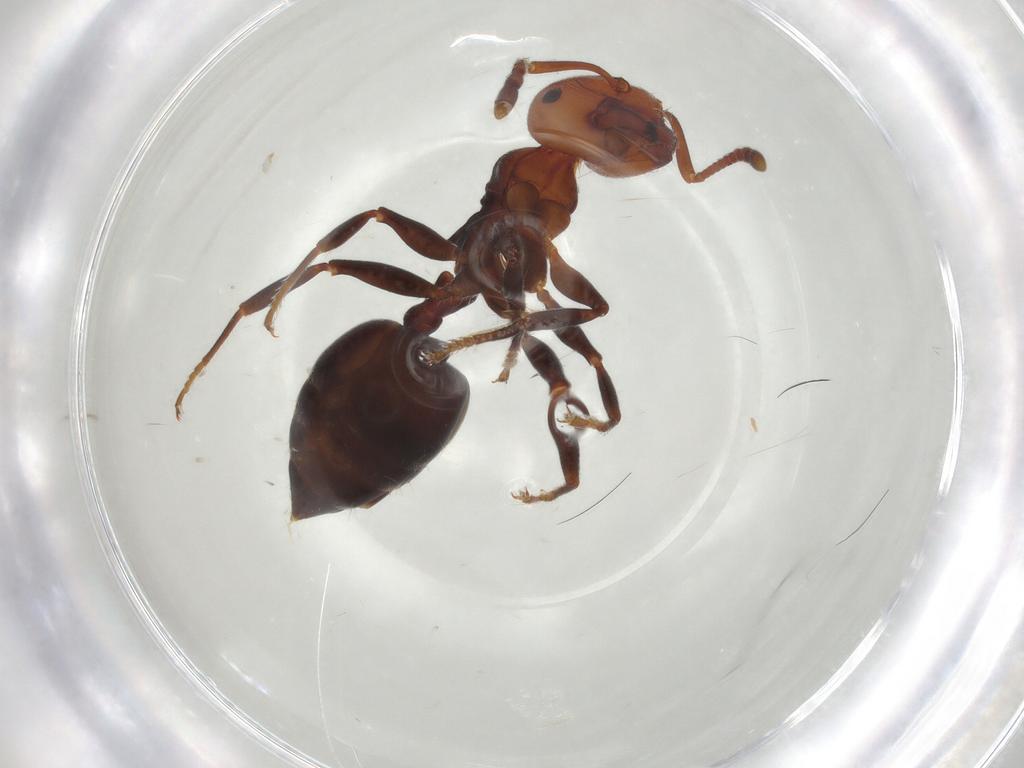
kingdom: Animalia
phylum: Arthropoda
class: Insecta
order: Hymenoptera
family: Formicidae
